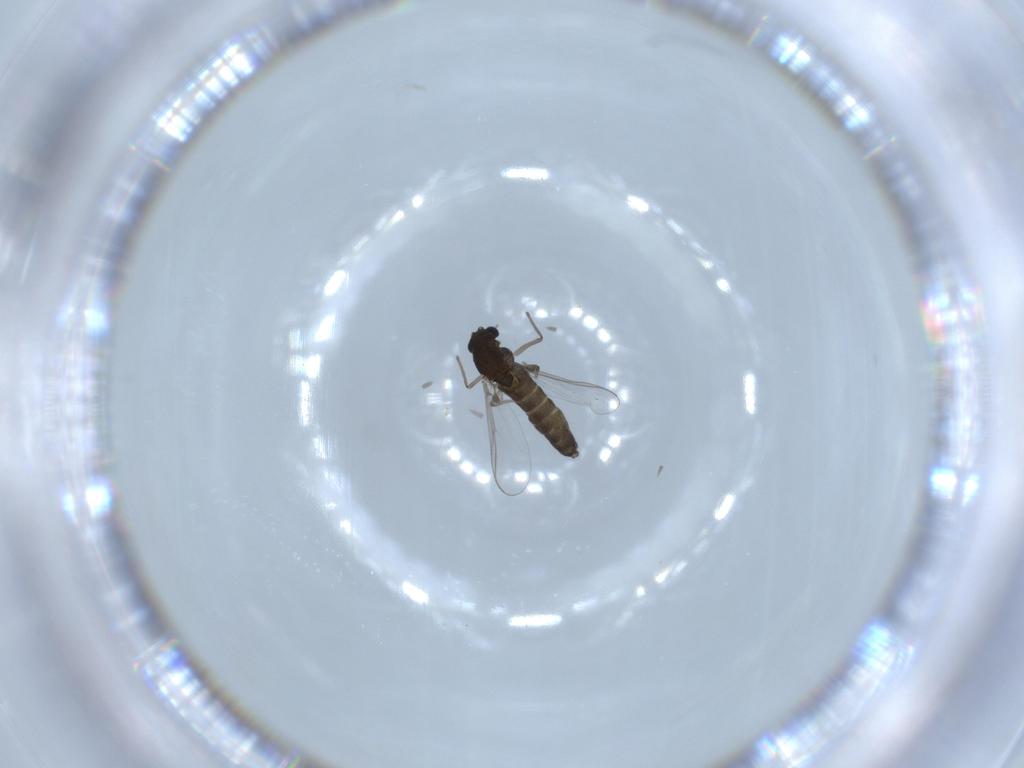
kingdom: Animalia
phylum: Arthropoda
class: Insecta
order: Diptera
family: Chironomidae
